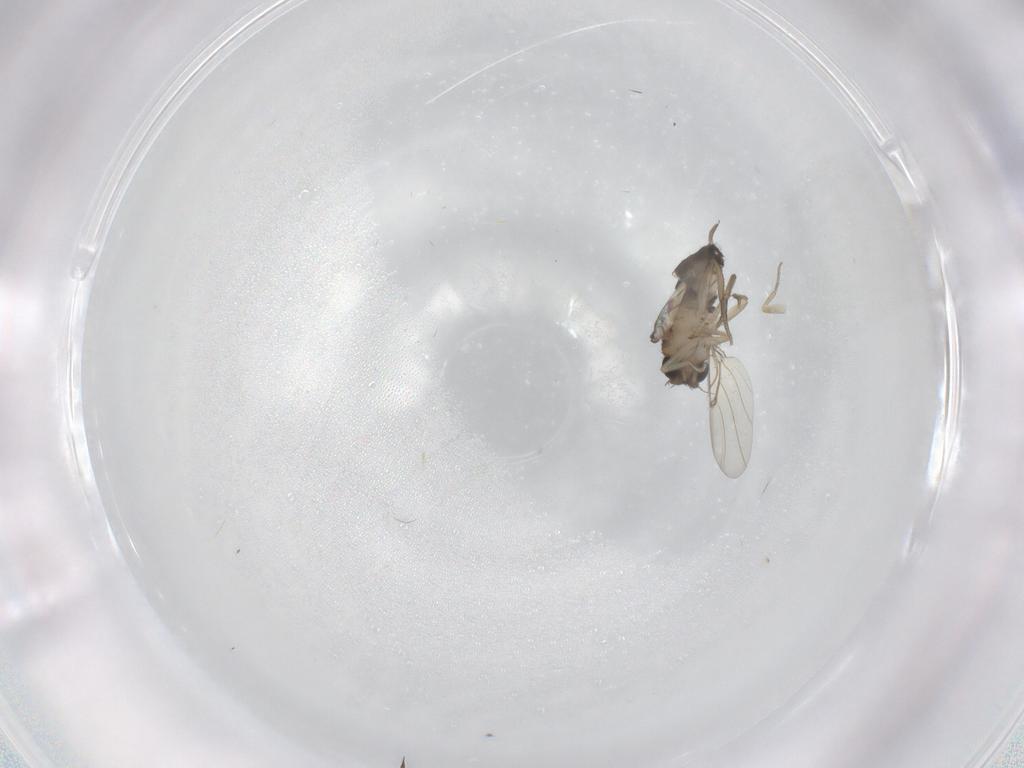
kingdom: Animalia
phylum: Arthropoda
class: Insecta
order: Diptera
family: Phoridae
